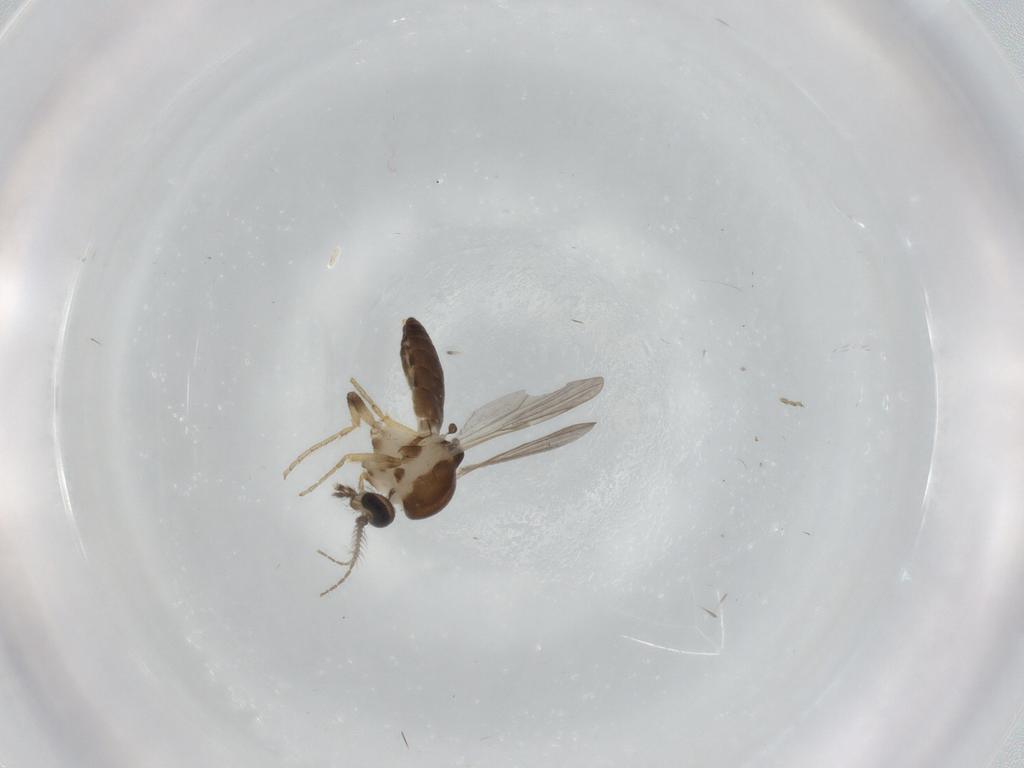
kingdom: Animalia
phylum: Arthropoda
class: Insecta
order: Diptera
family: Ceratopogonidae
